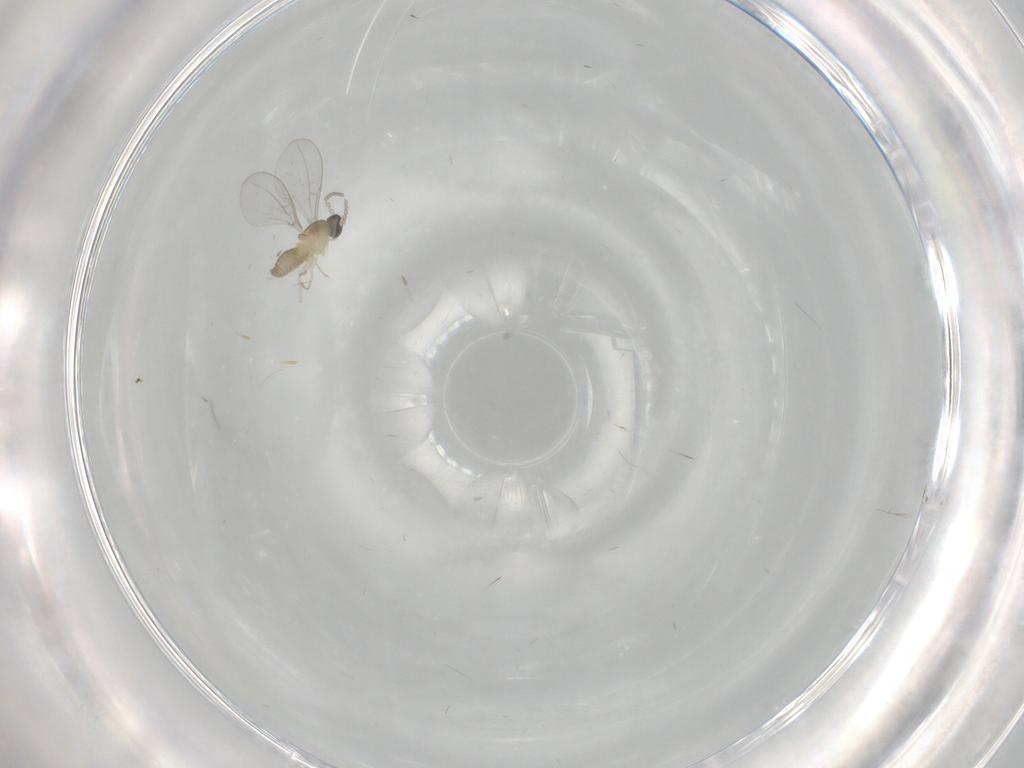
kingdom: Animalia
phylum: Arthropoda
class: Insecta
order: Diptera
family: Cecidomyiidae
